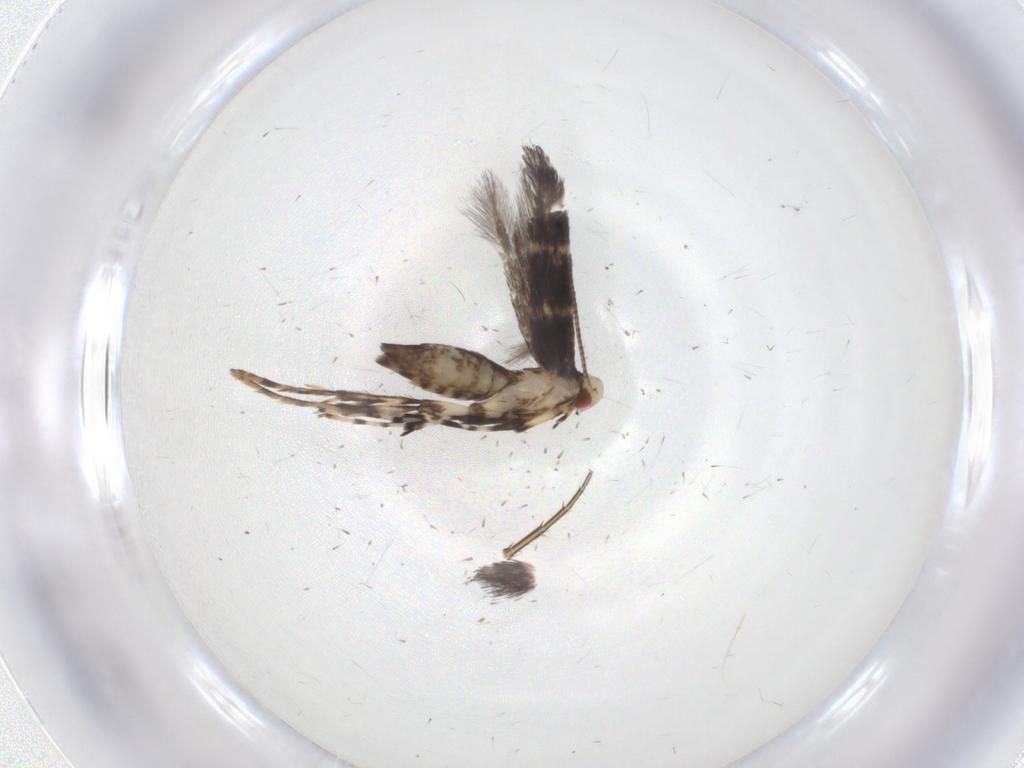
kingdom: Animalia
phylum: Arthropoda
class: Insecta
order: Lepidoptera
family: Gracillariidae
